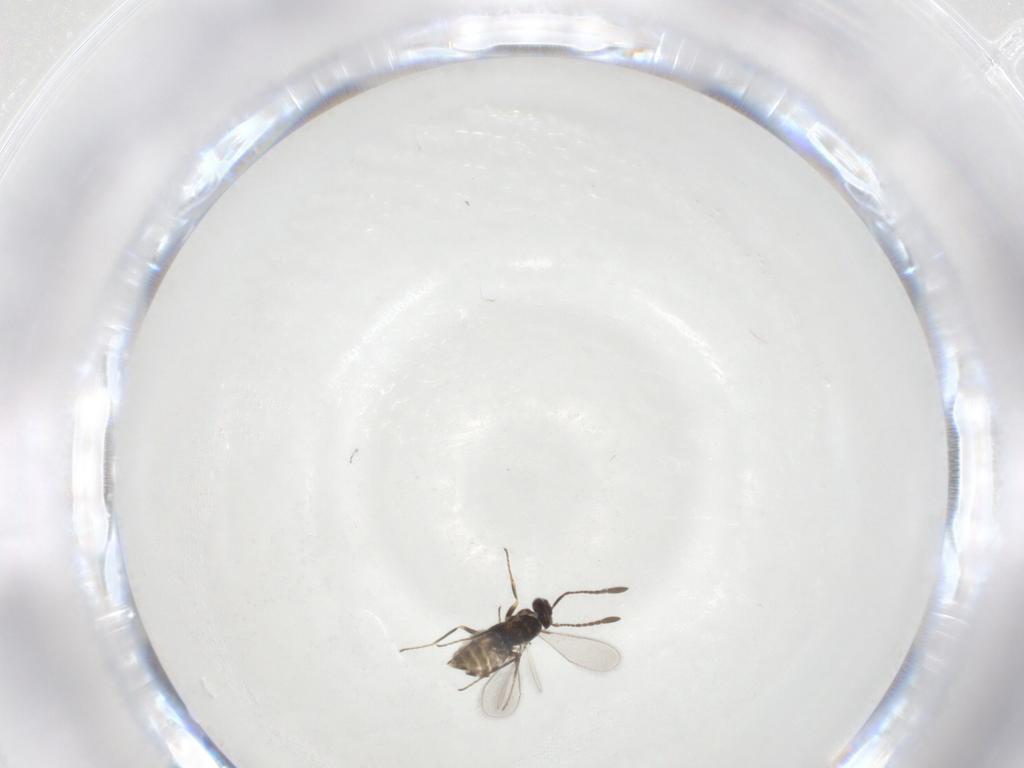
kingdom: Animalia
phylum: Arthropoda
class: Insecta
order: Hymenoptera
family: Mymaridae
